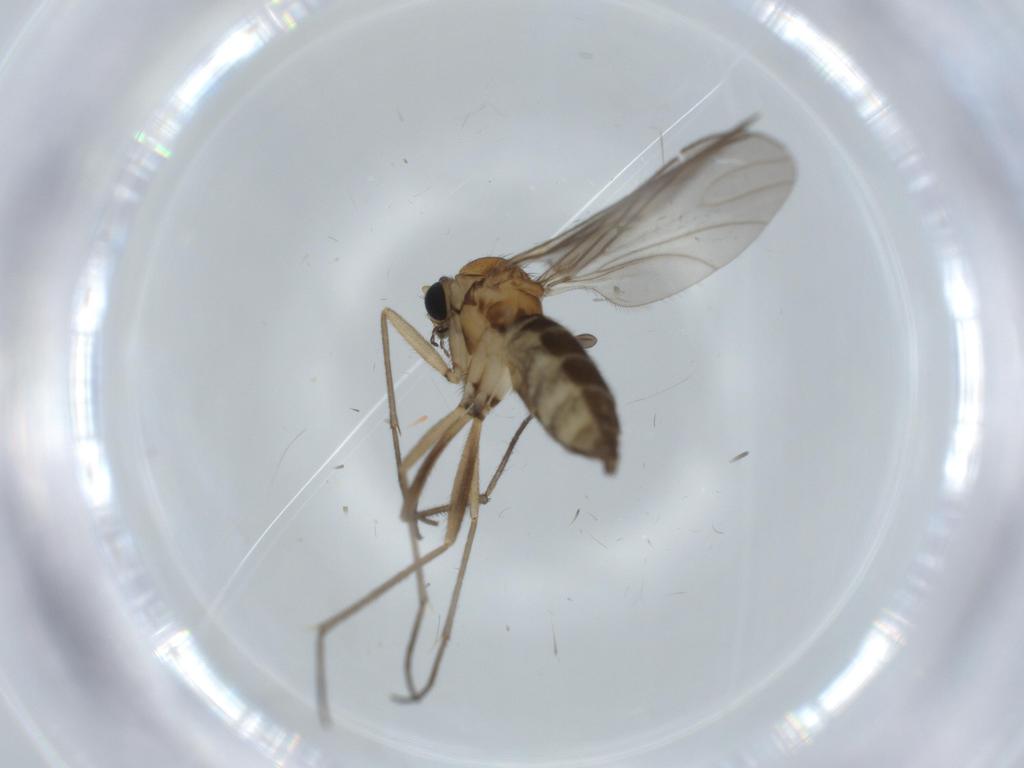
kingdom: Animalia
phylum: Arthropoda
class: Insecta
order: Diptera
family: Sciaridae
